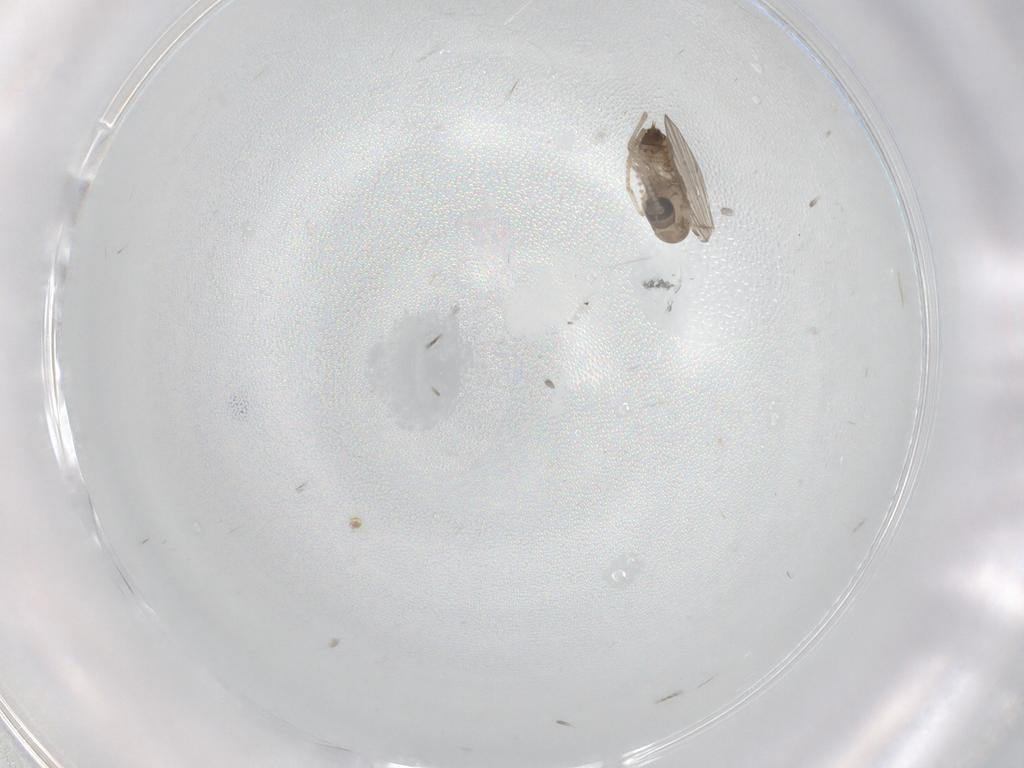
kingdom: Animalia
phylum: Arthropoda
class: Insecta
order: Diptera
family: Psychodidae
